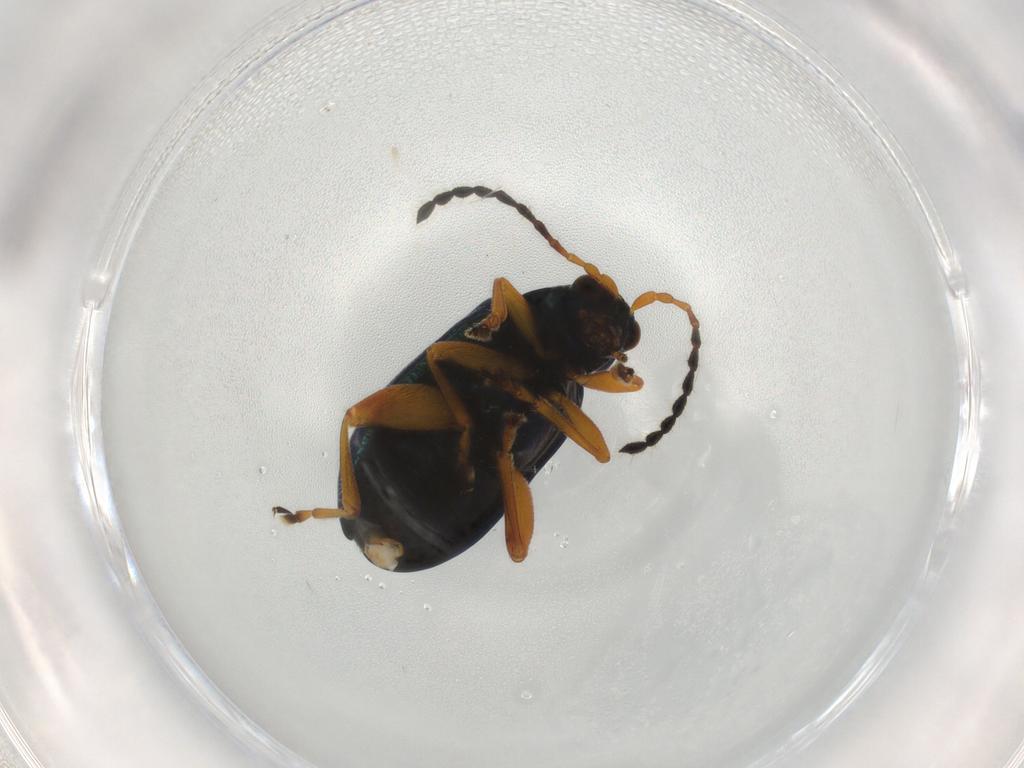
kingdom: Animalia
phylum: Arthropoda
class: Insecta
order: Coleoptera
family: Chrysomelidae
